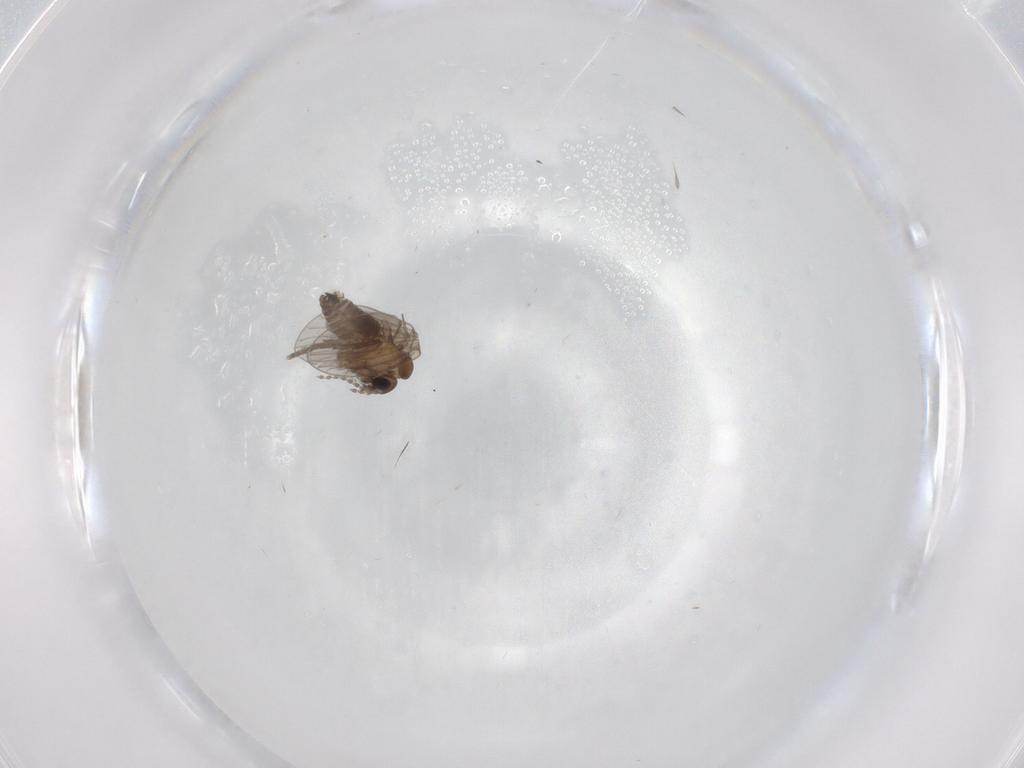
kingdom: Animalia
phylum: Arthropoda
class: Insecta
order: Diptera
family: Sciaridae
